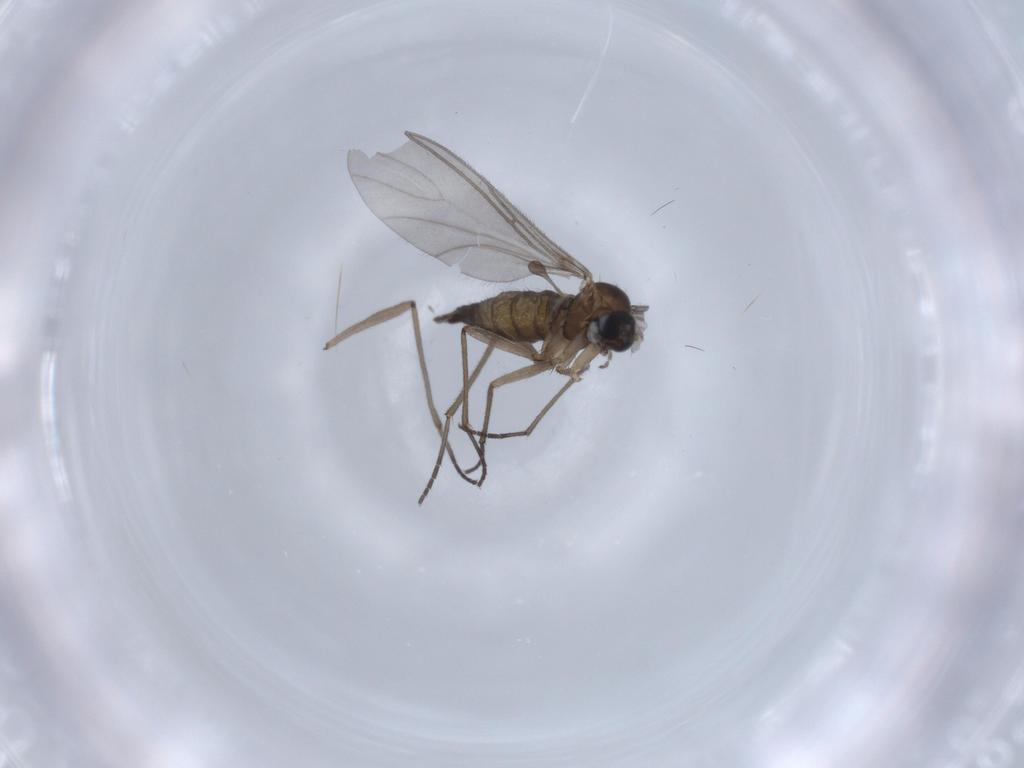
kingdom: Animalia
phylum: Arthropoda
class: Insecta
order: Diptera
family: Sciaridae
